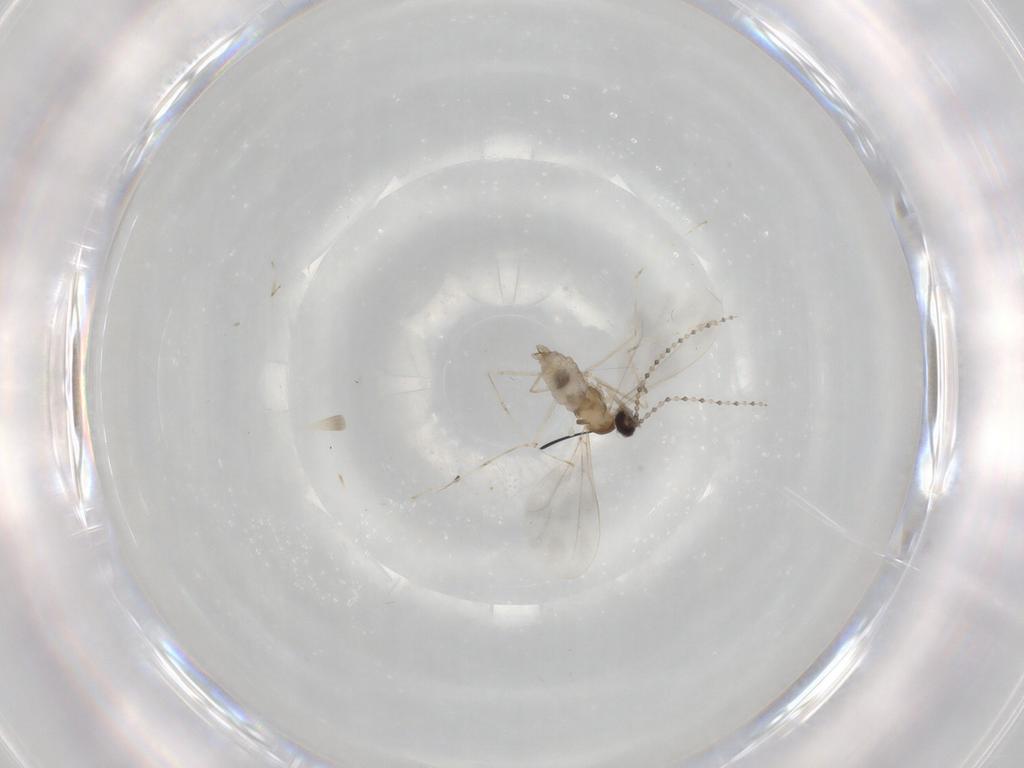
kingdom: Animalia
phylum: Arthropoda
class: Insecta
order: Diptera
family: Cecidomyiidae
